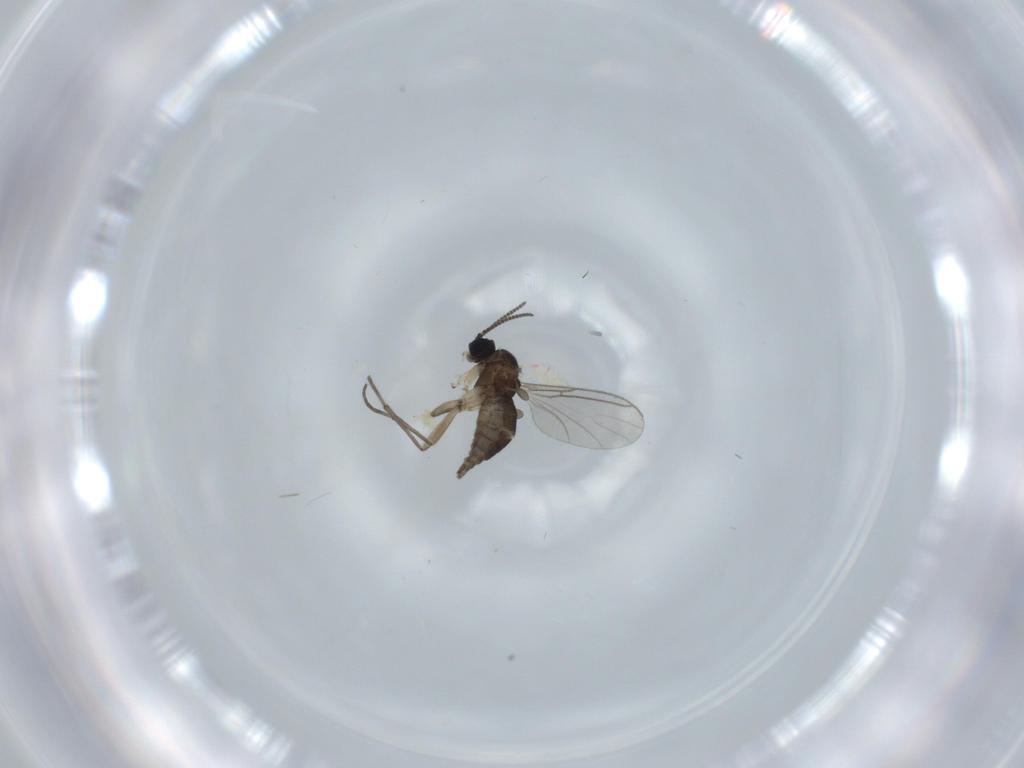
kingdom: Animalia
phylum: Arthropoda
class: Insecta
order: Diptera
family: Sciaridae
